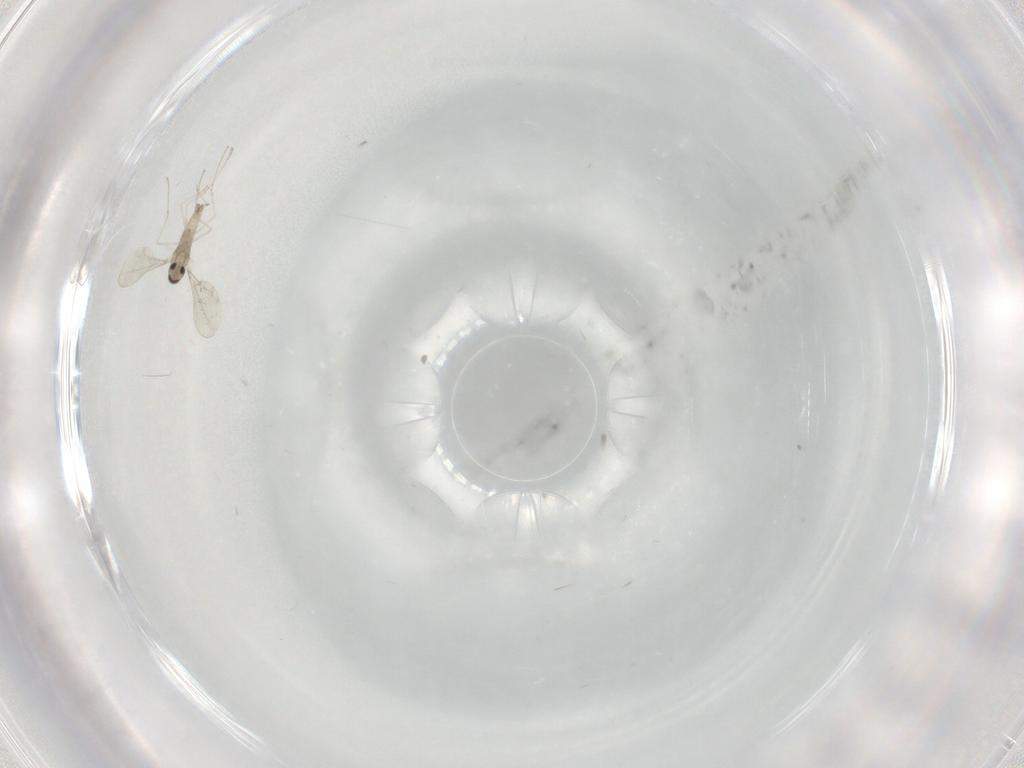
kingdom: Animalia
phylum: Arthropoda
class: Insecta
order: Diptera
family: Cecidomyiidae
